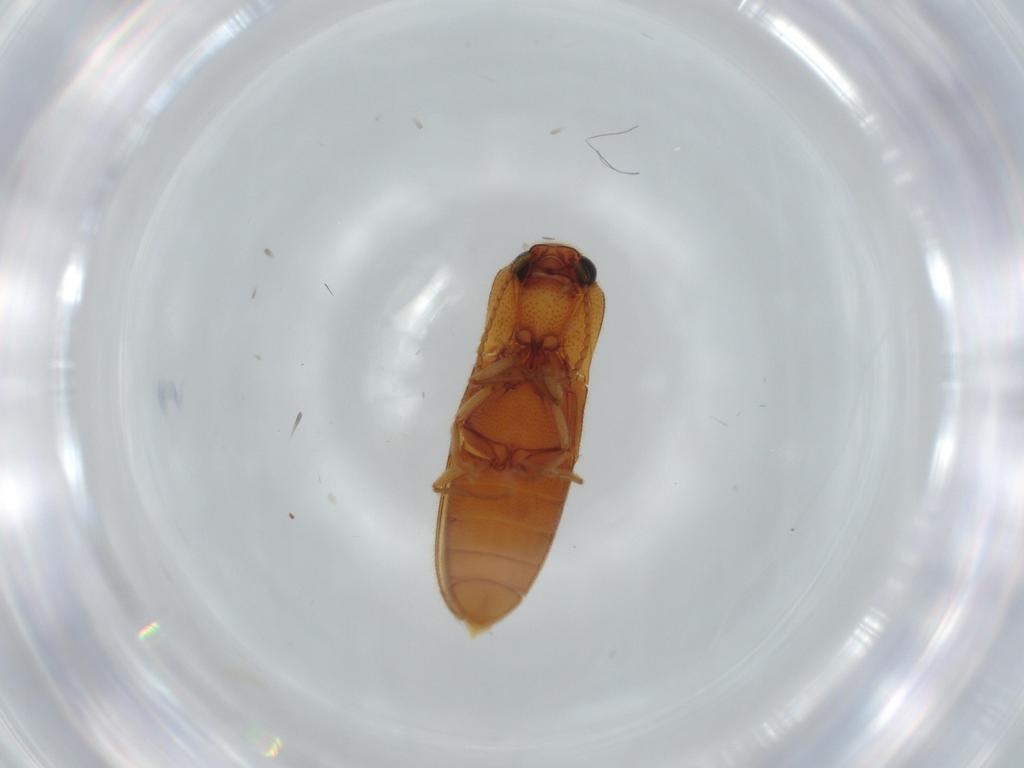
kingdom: Animalia
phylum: Arthropoda
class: Insecta
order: Coleoptera
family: Elateridae
